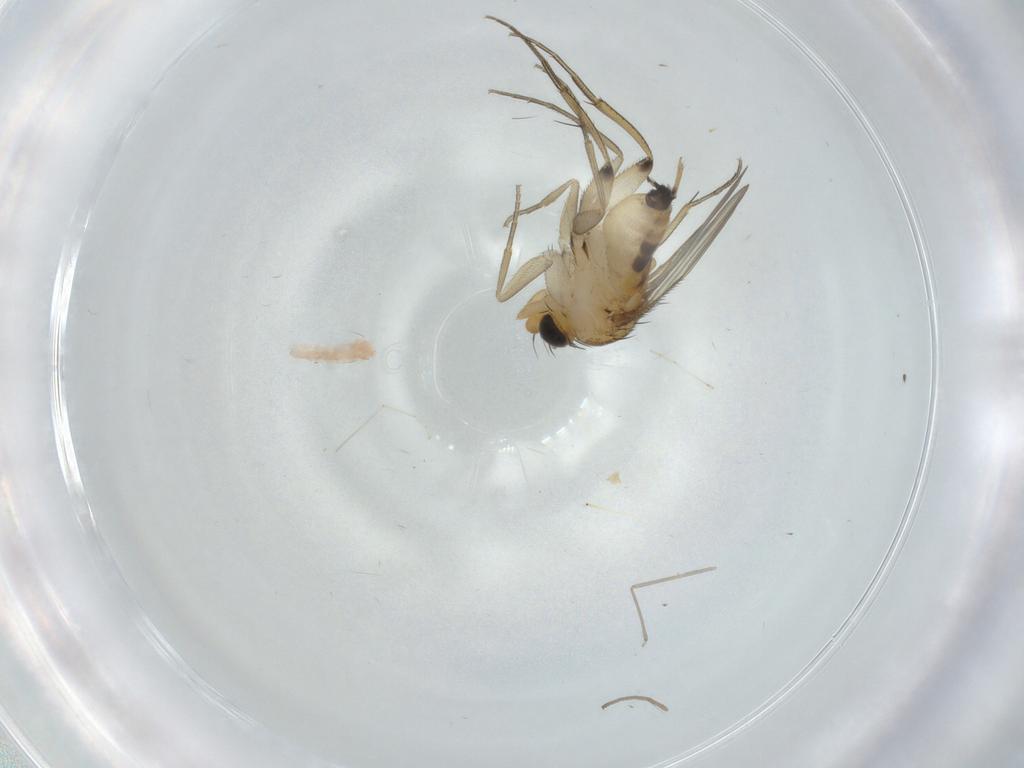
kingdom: Animalia
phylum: Arthropoda
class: Insecta
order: Diptera
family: Phoridae
